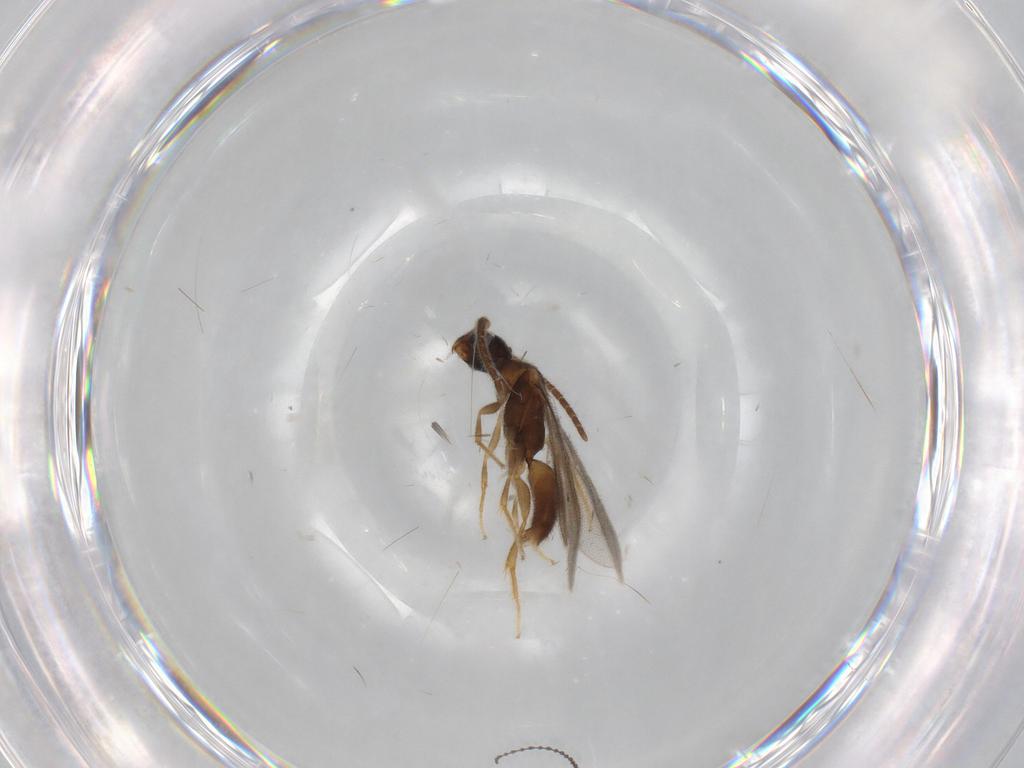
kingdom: Animalia
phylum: Arthropoda
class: Insecta
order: Hymenoptera
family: Bethylidae
